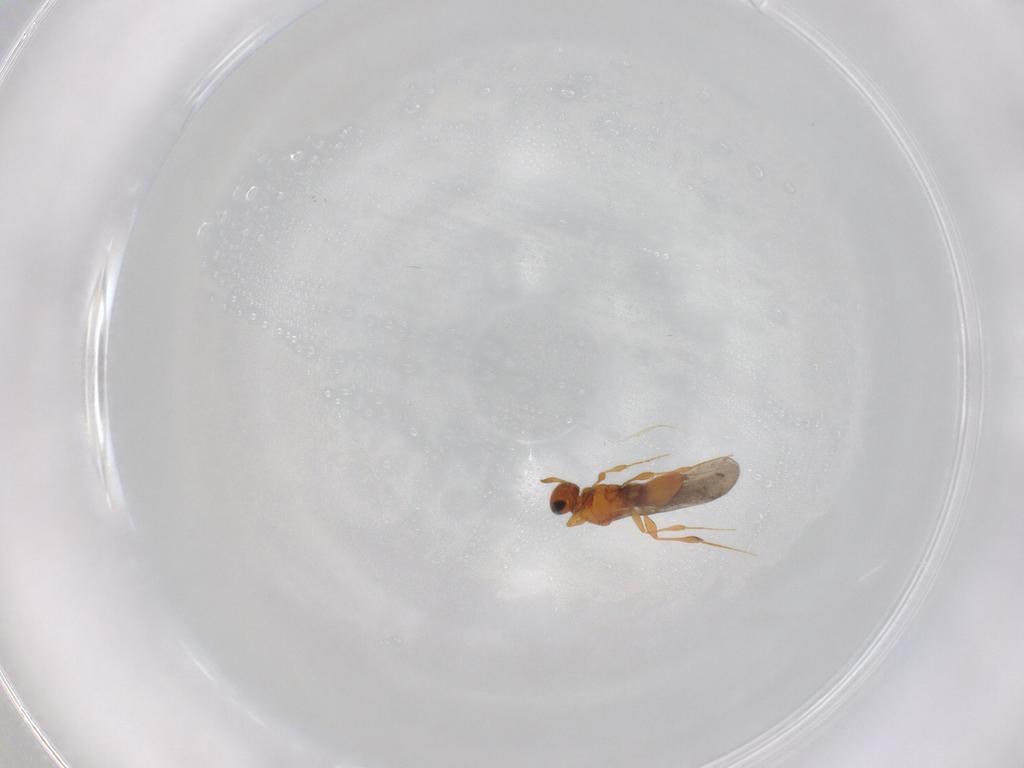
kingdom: Animalia
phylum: Arthropoda
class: Insecta
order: Hymenoptera
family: Platygastridae
